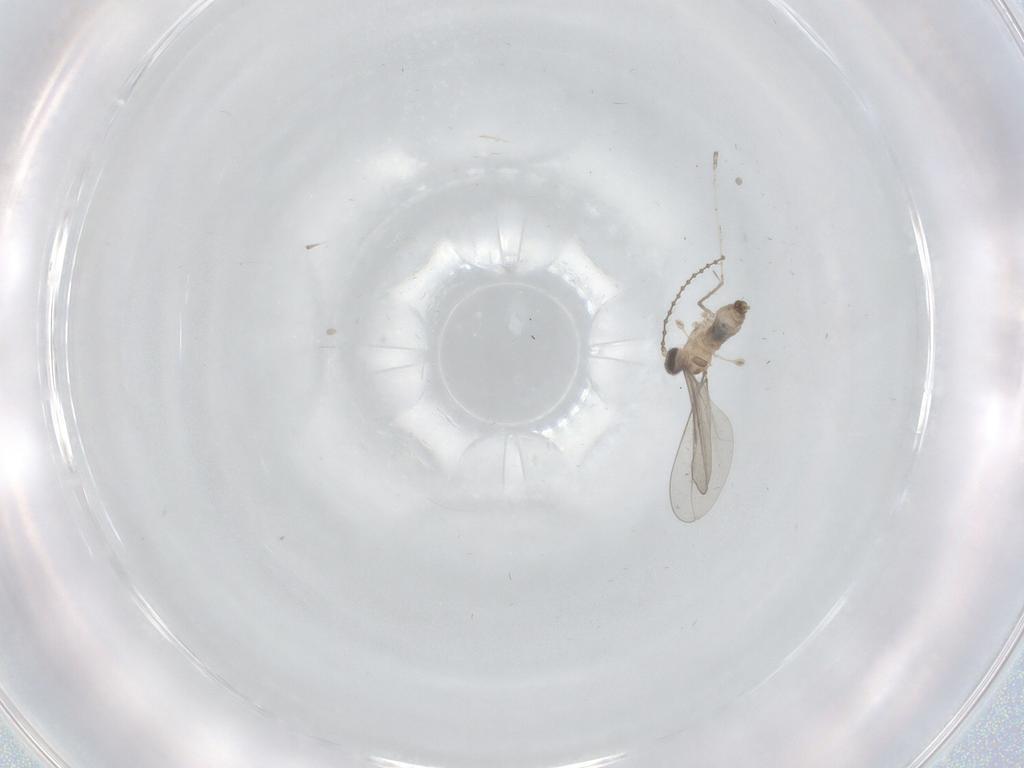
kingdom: Animalia
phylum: Arthropoda
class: Insecta
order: Diptera
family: Cecidomyiidae
